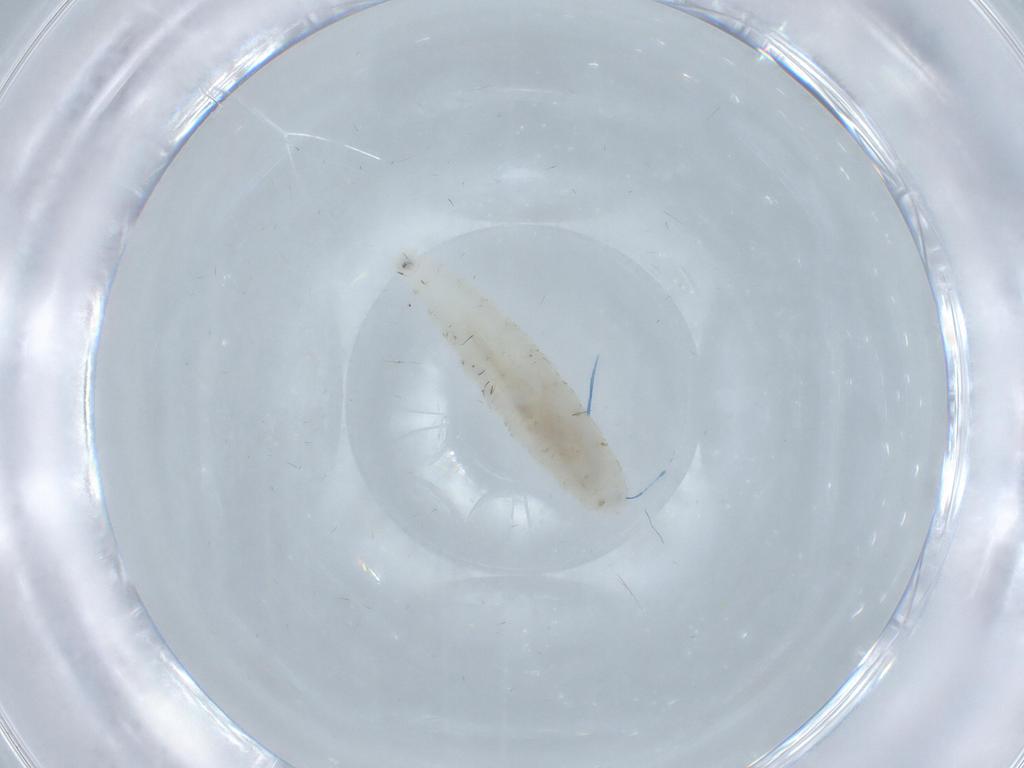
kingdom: Animalia
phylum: Arthropoda
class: Insecta
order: Diptera
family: Phoridae
